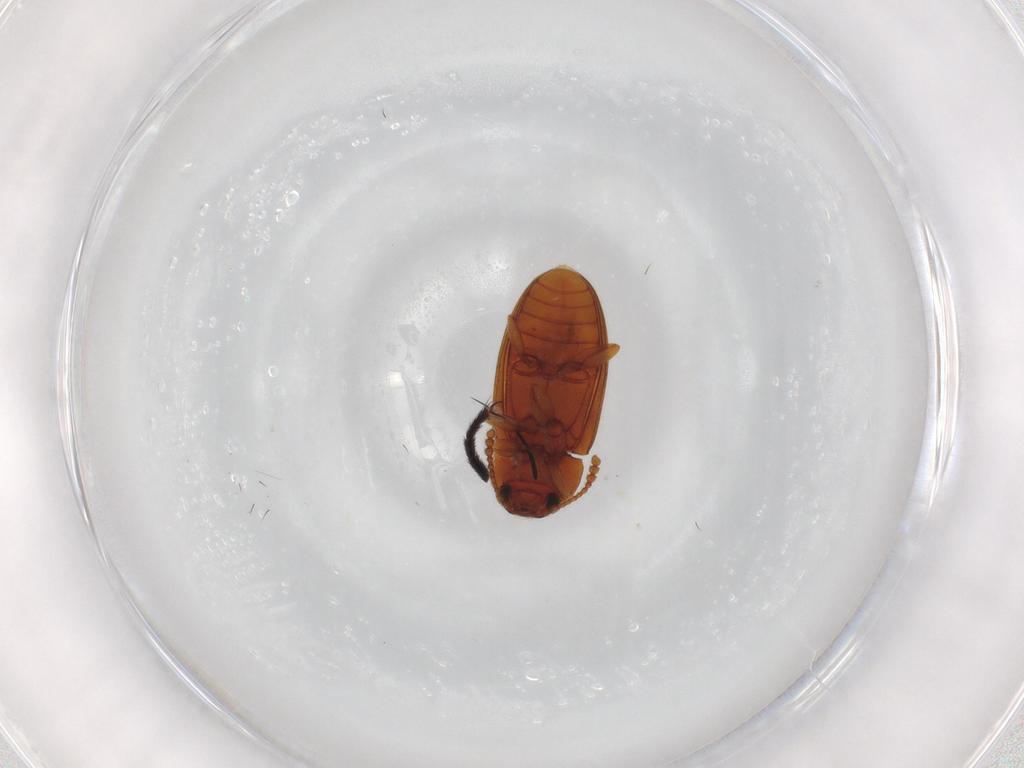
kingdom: Animalia
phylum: Arthropoda
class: Insecta
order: Coleoptera
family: Erotylidae
